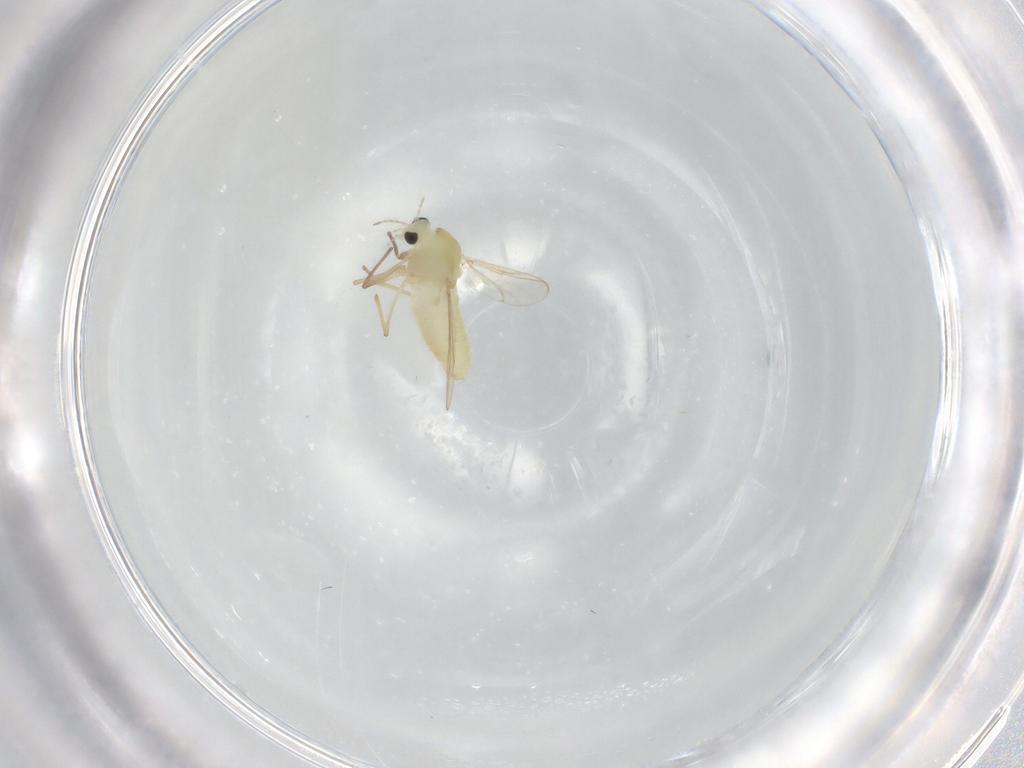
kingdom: Animalia
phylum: Arthropoda
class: Insecta
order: Diptera
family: Chironomidae
